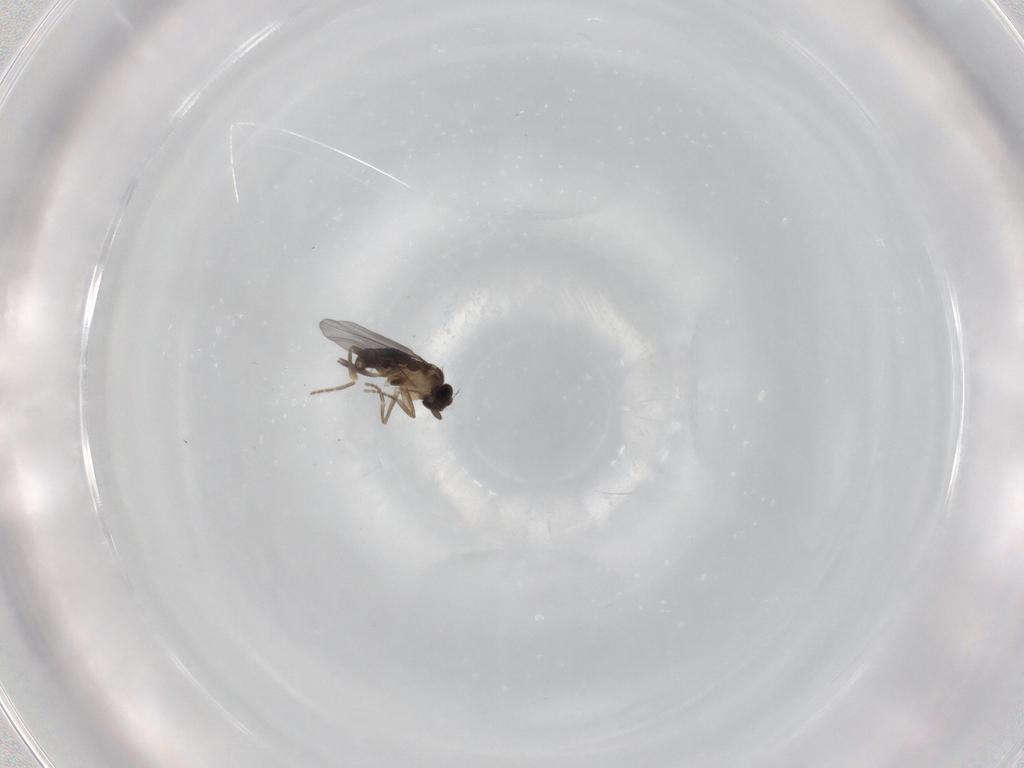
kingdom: Animalia
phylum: Arthropoda
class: Insecta
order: Diptera
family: Phoridae
